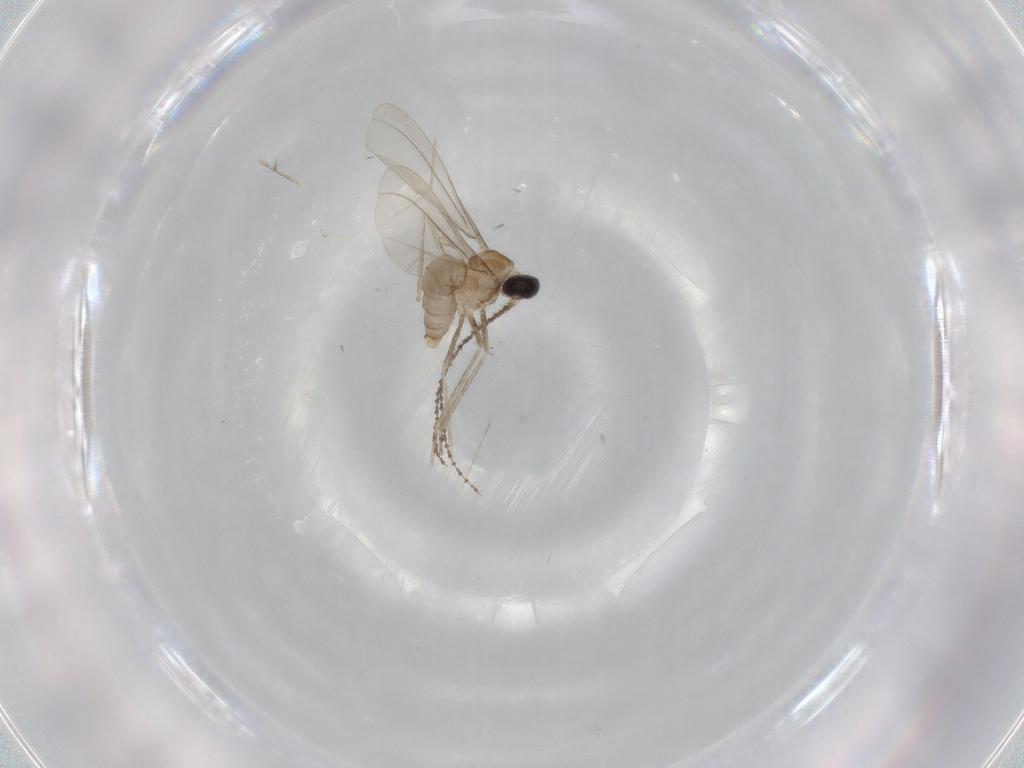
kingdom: Animalia
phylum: Arthropoda
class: Insecta
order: Diptera
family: Cecidomyiidae
